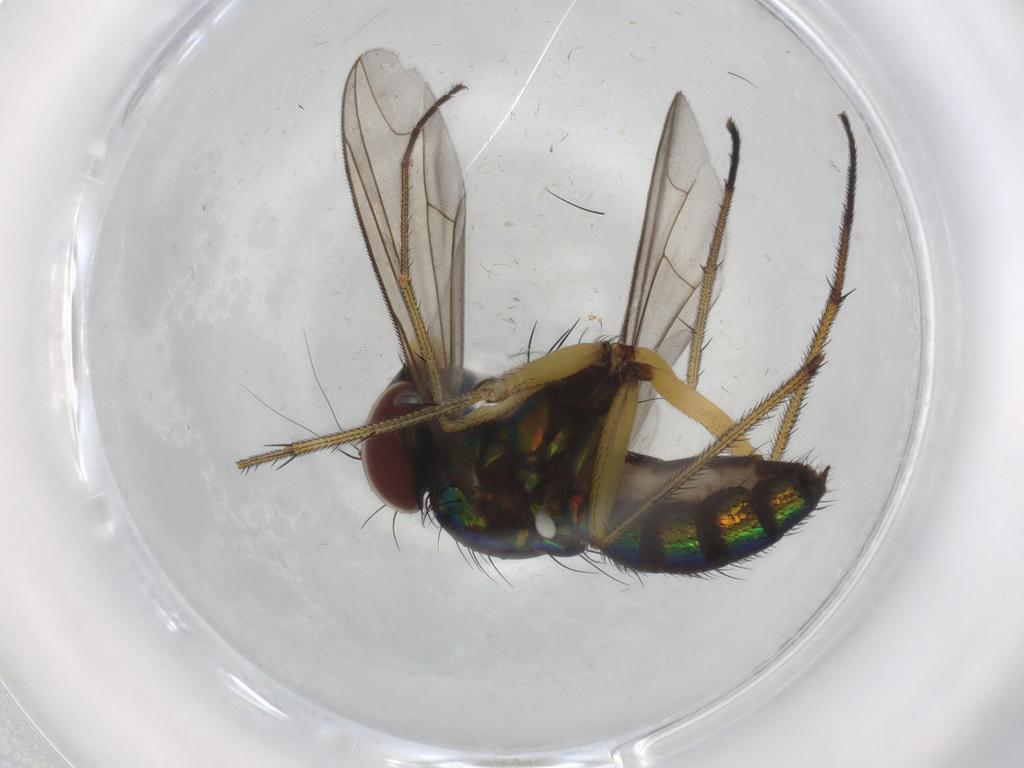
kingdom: Animalia
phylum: Arthropoda
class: Insecta
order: Diptera
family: Dolichopodidae
